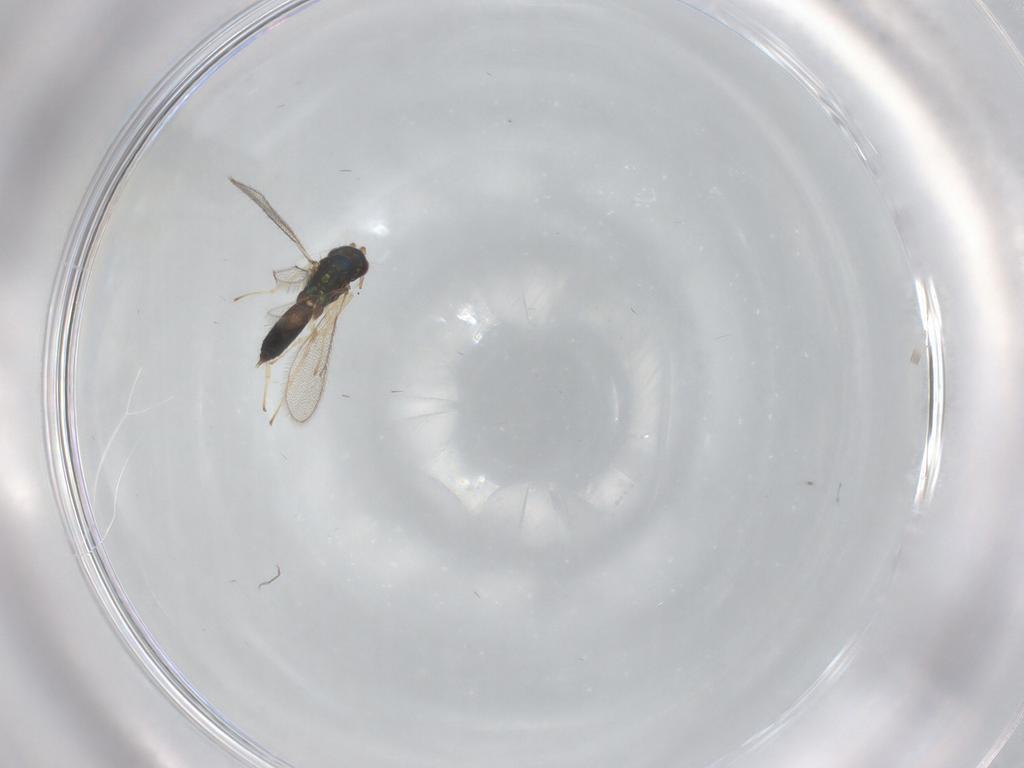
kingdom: Animalia
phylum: Arthropoda
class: Insecta
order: Hymenoptera
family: Eulophidae
